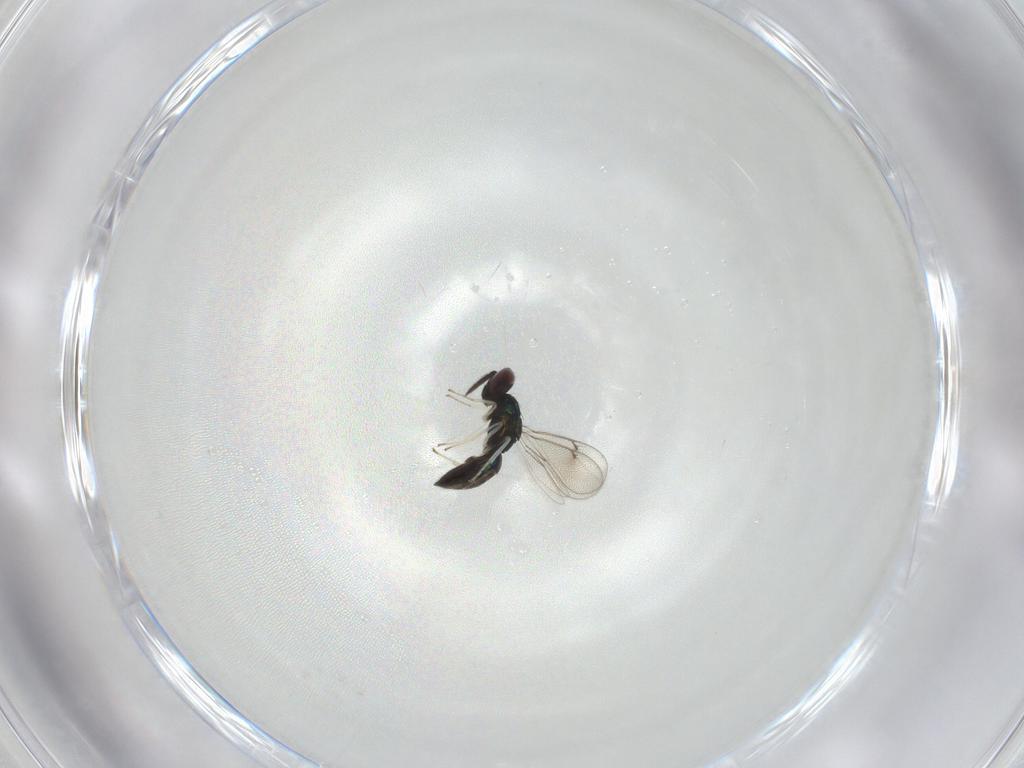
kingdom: Animalia
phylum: Arthropoda
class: Insecta
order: Hymenoptera
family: Eulophidae
